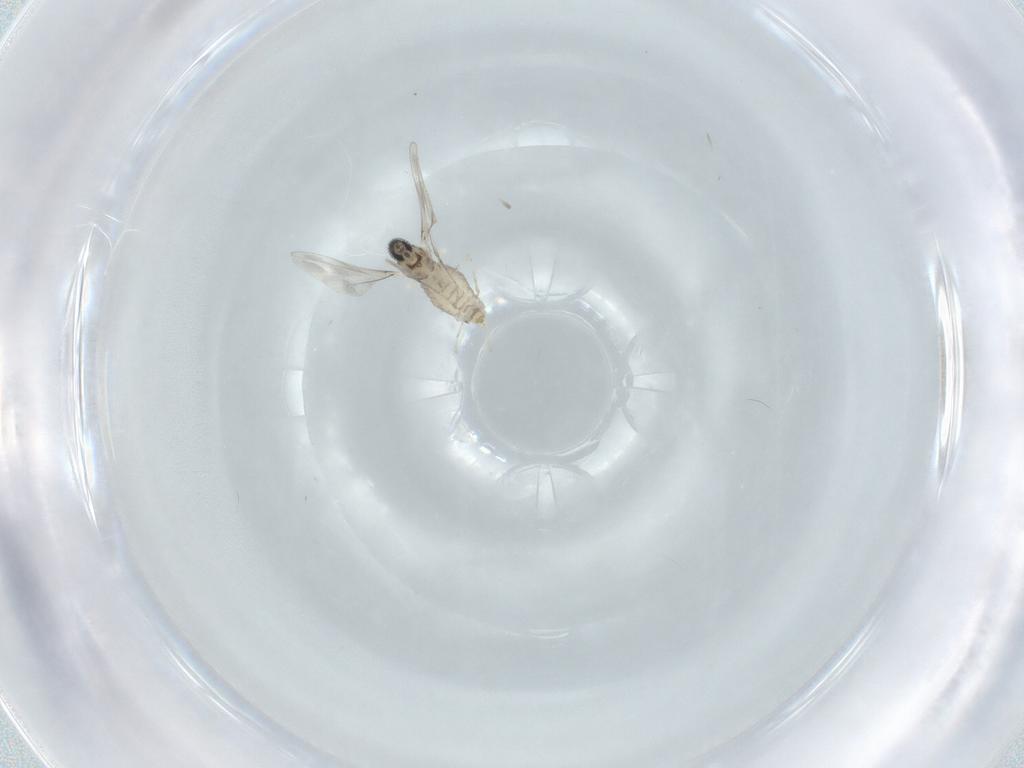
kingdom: Animalia
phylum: Arthropoda
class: Insecta
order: Diptera
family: Cecidomyiidae
